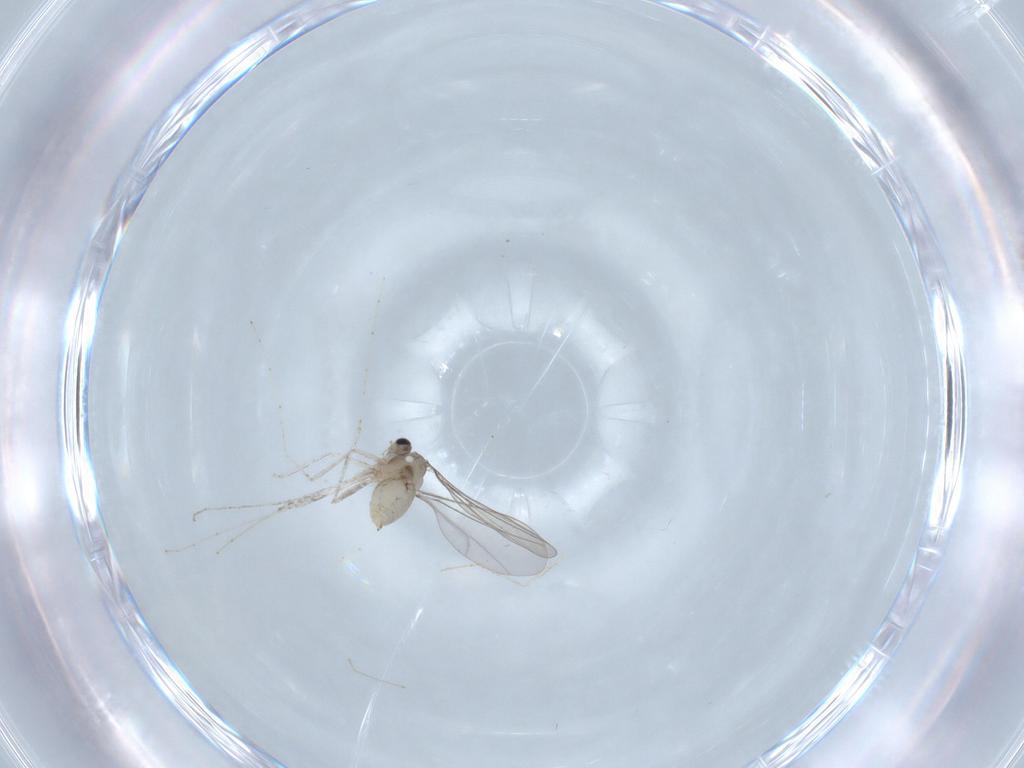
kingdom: Animalia
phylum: Arthropoda
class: Insecta
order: Diptera
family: Cecidomyiidae
